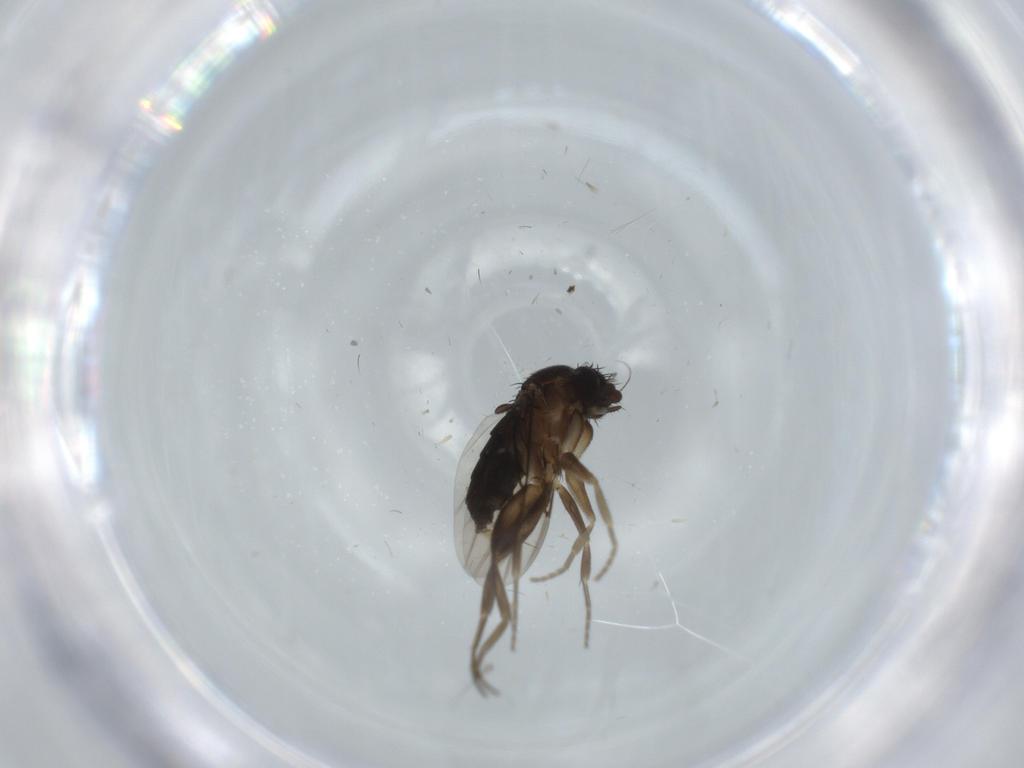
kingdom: Animalia
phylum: Arthropoda
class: Insecta
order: Diptera
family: Phoridae
